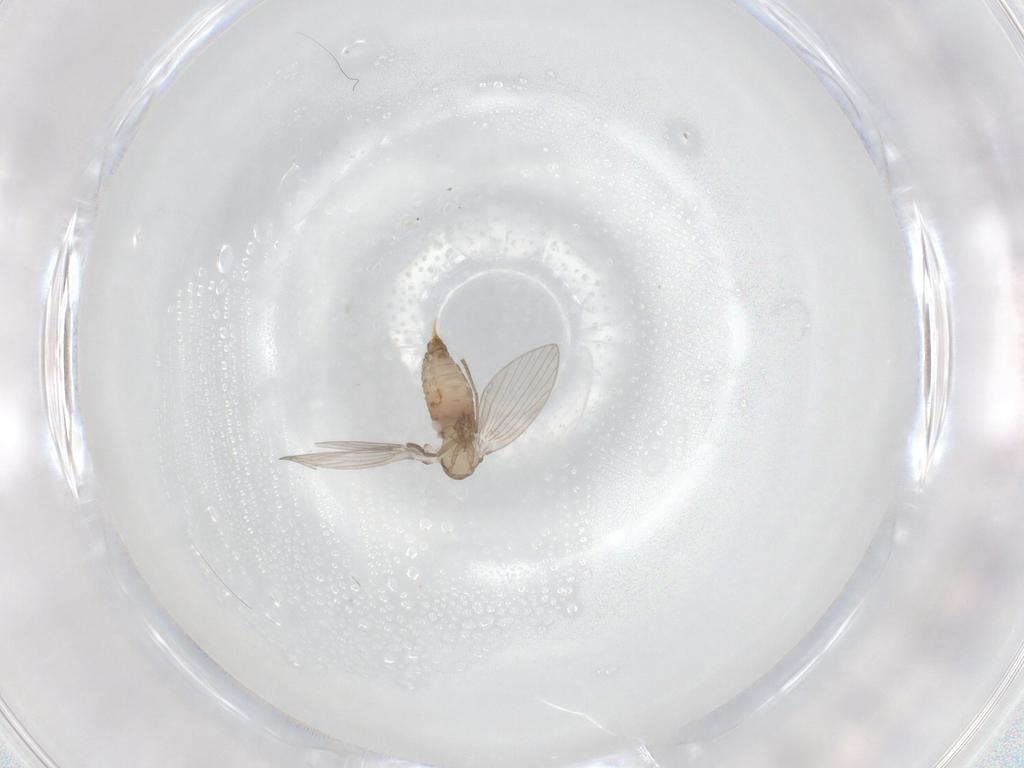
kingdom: Animalia
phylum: Arthropoda
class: Insecta
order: Diptera
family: Psychodidae
